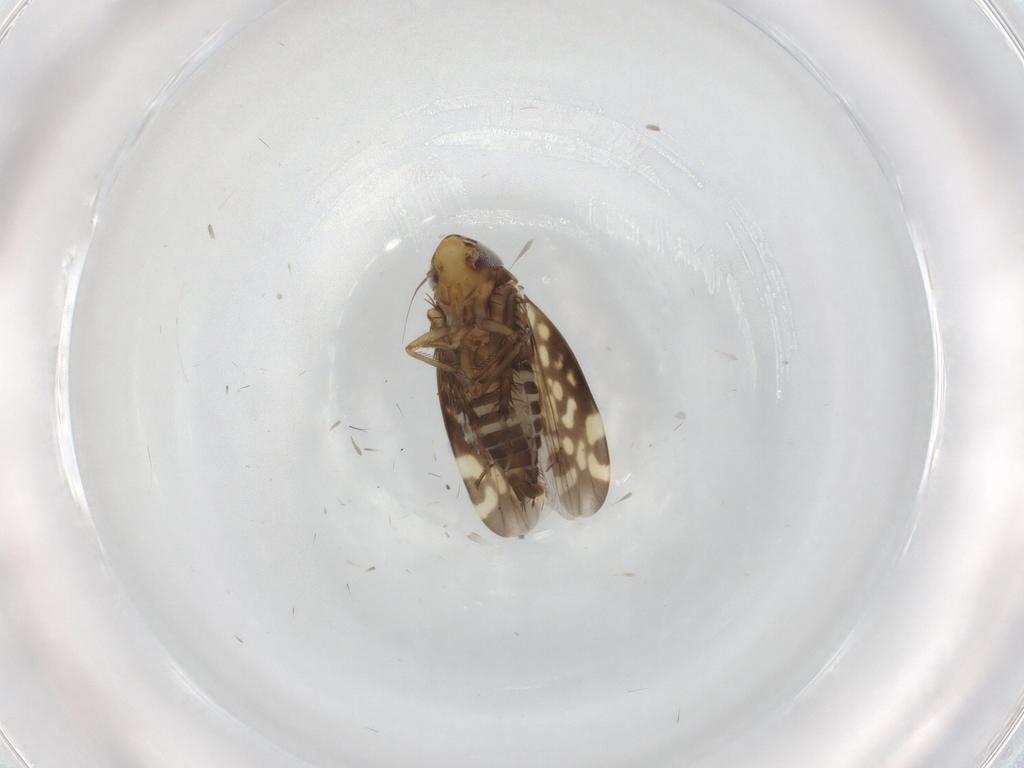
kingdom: Animalia
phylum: Arthropoda
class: Insecta
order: Hemiptera
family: Cicadellidae
